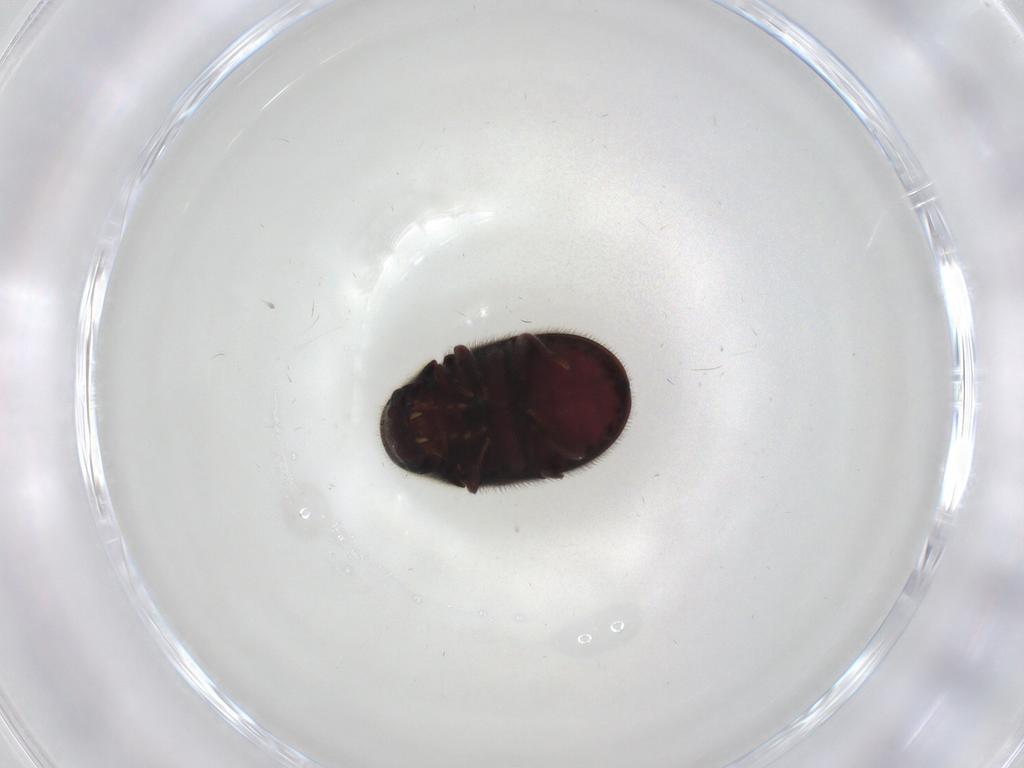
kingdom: Animalia
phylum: Arthropoda
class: Insecta
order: Coleoptera
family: Ptinidae
